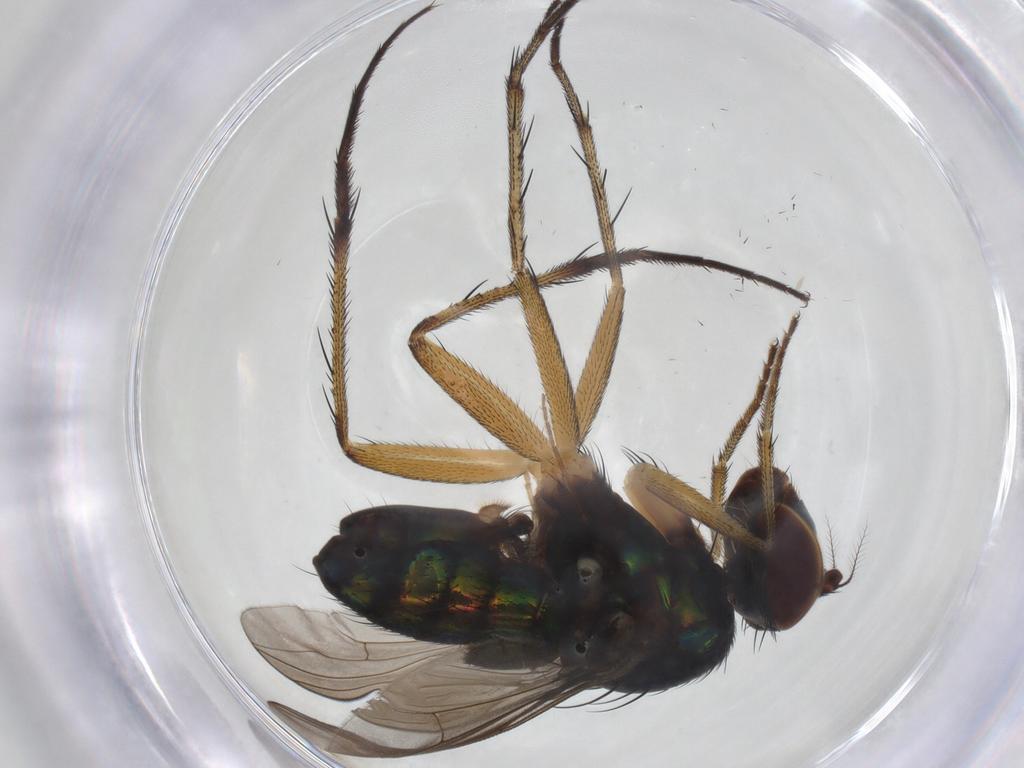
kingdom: Animalia
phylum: Arthropoda
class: Insecta
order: Diptera
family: Dolichopodidae
